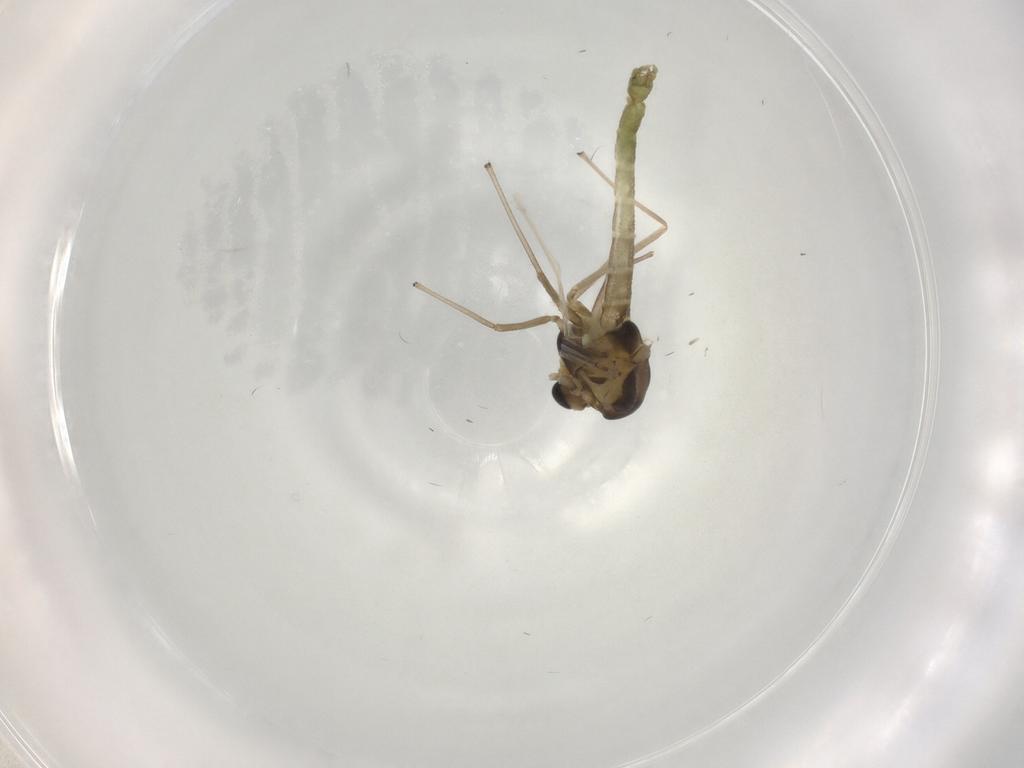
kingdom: Animalia
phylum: Arthropoda
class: Insecta
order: Diptera
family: Chironomidae
